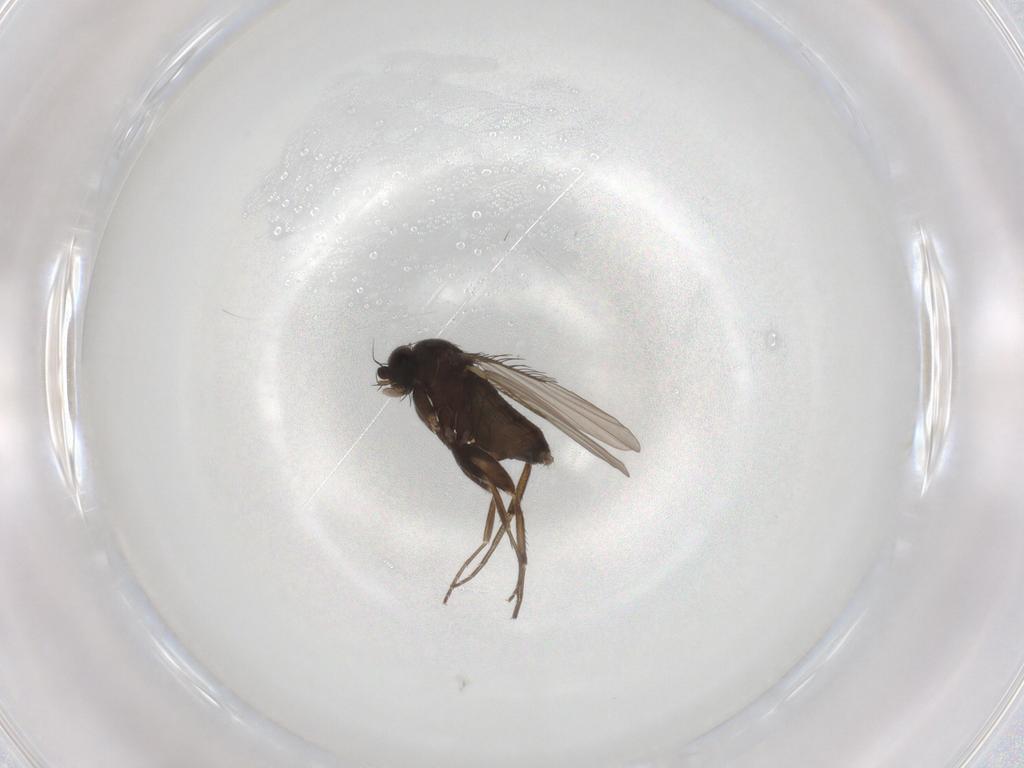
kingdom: Animalia
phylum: Arthropoda
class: Insecta
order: Diptera
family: Phoridae
